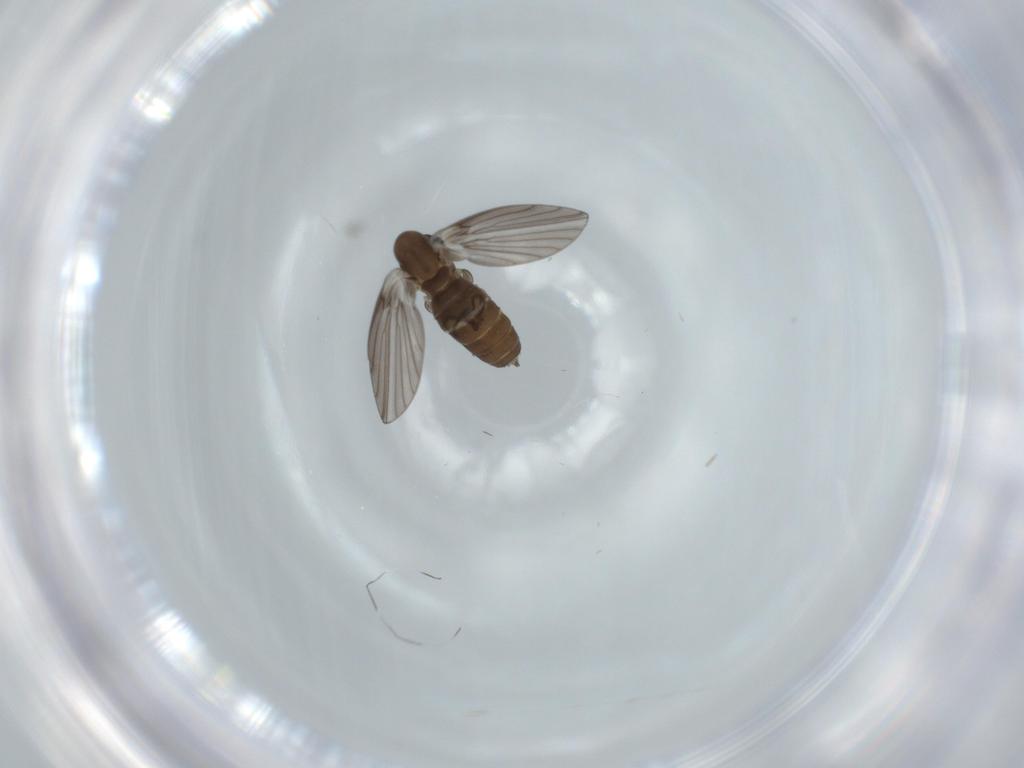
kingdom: Animalia
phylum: Arthropoda
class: Insecta
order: Diptera
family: Psychodidae
